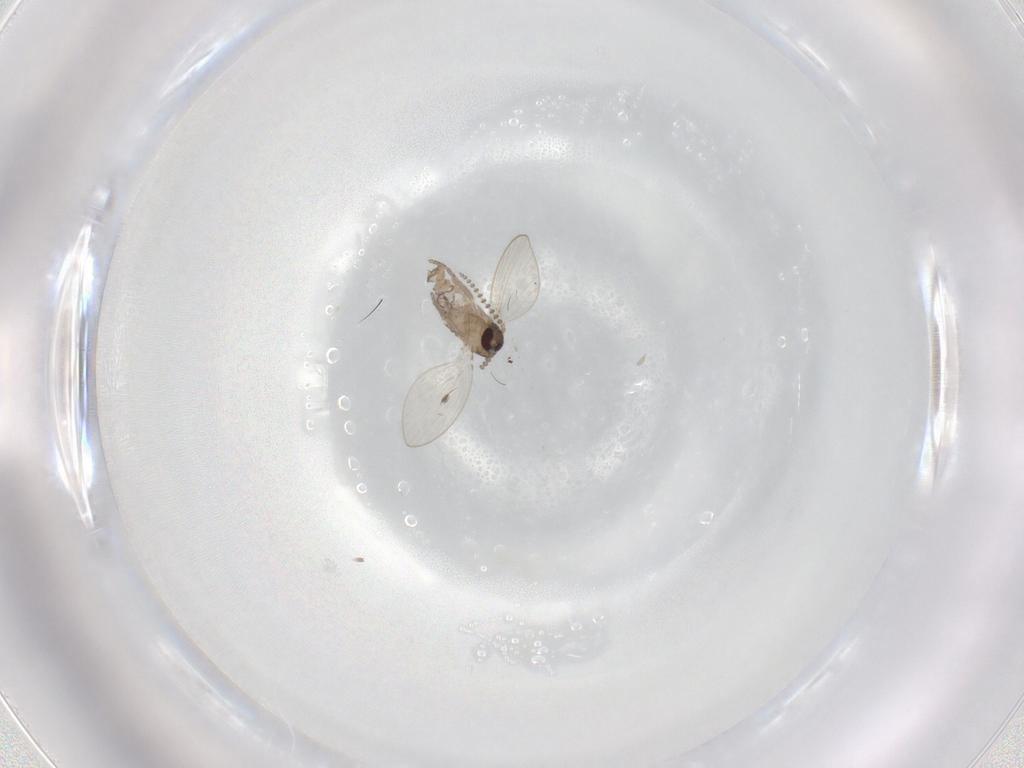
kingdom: Animalia
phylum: Arthropoda
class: Insecta
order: Diptera
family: Psychodidae
